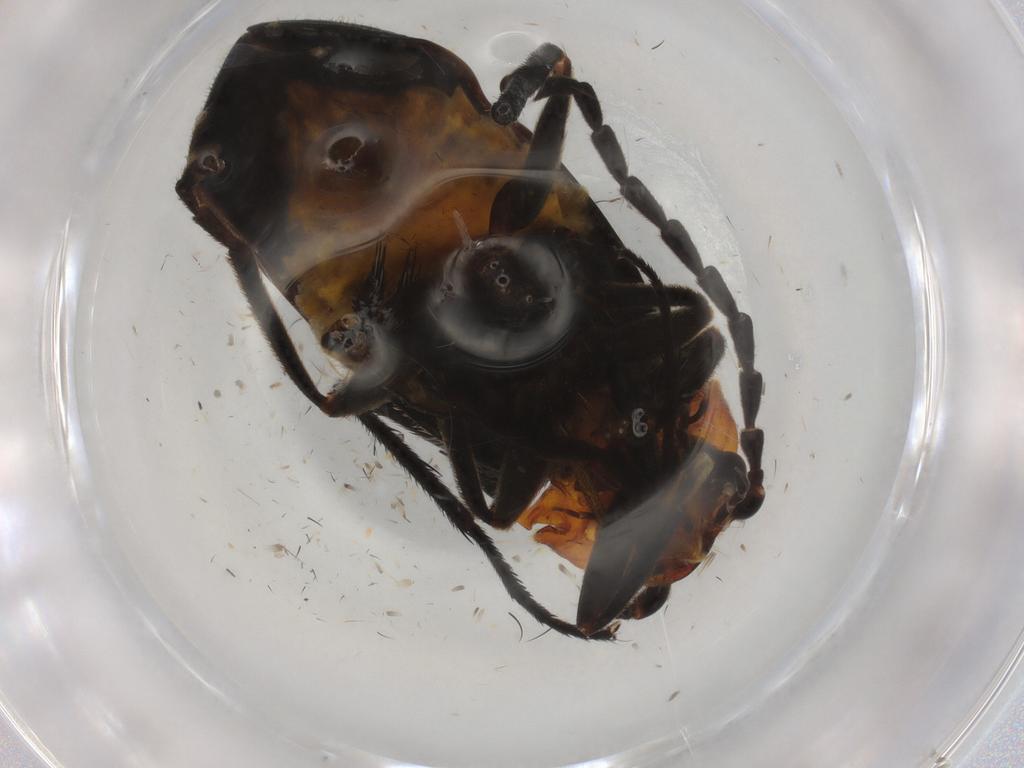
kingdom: Animalia
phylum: Arthropoda
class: Insecta
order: Coleoptera
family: Cantharidae
